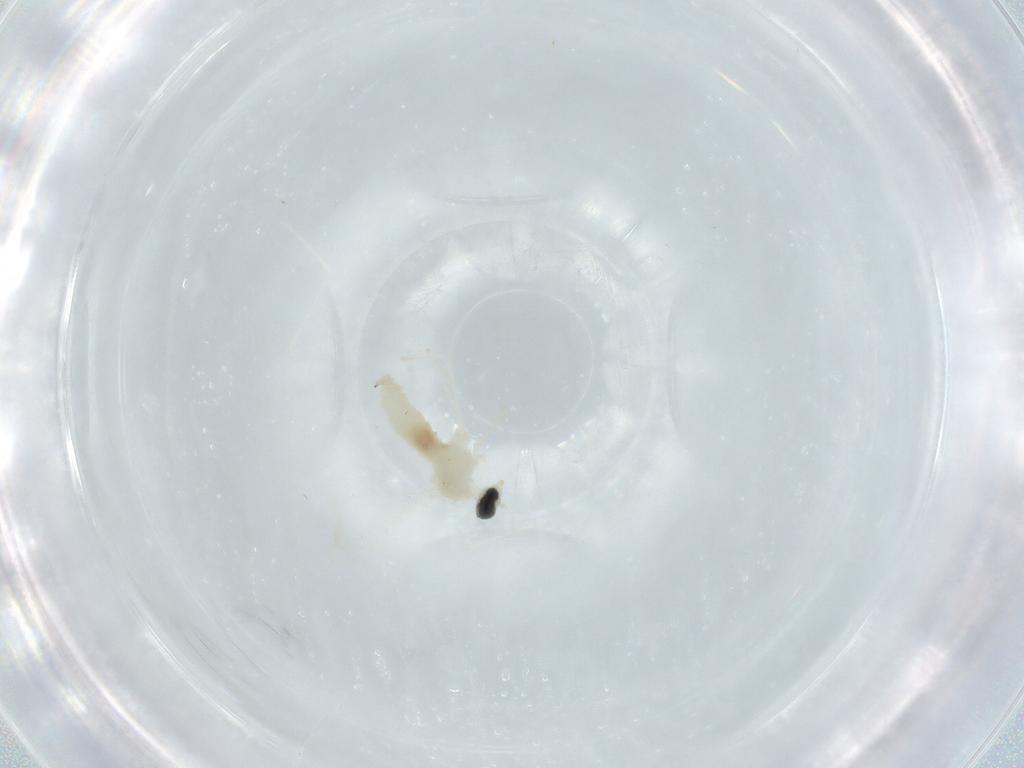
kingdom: Animalia
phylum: Arthropoda
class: Insecta
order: Diptera
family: Cecidomyiidae
